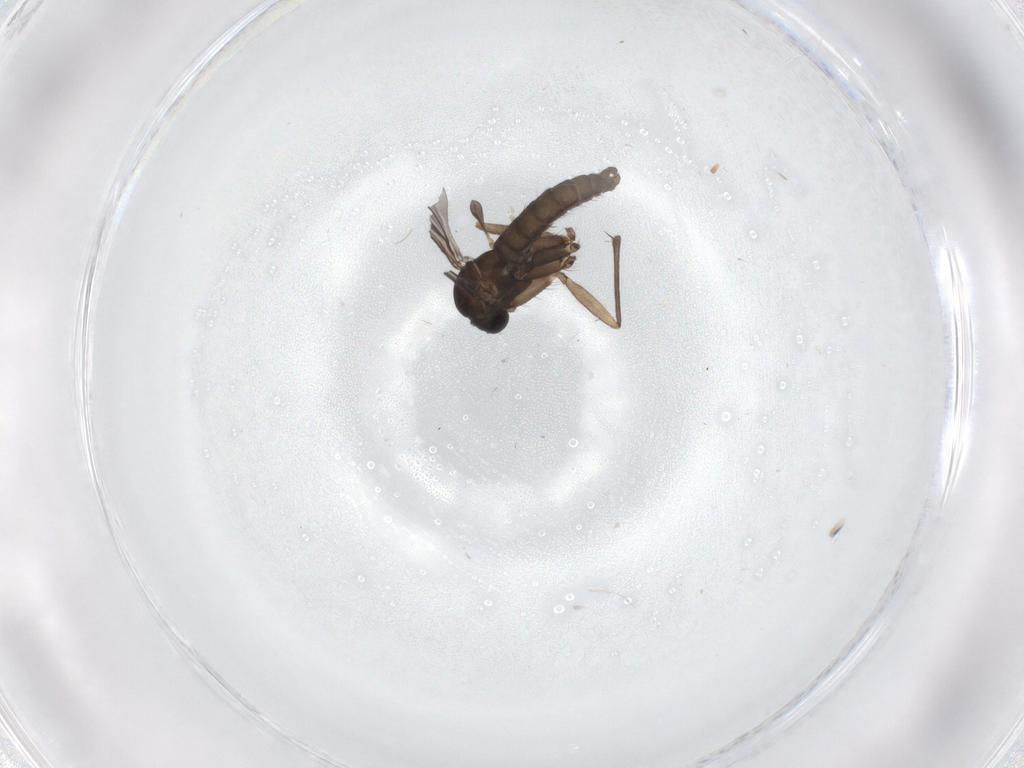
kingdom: Animalia
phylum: Arthropoda
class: Insecta
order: Diptera
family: Sciaridae
